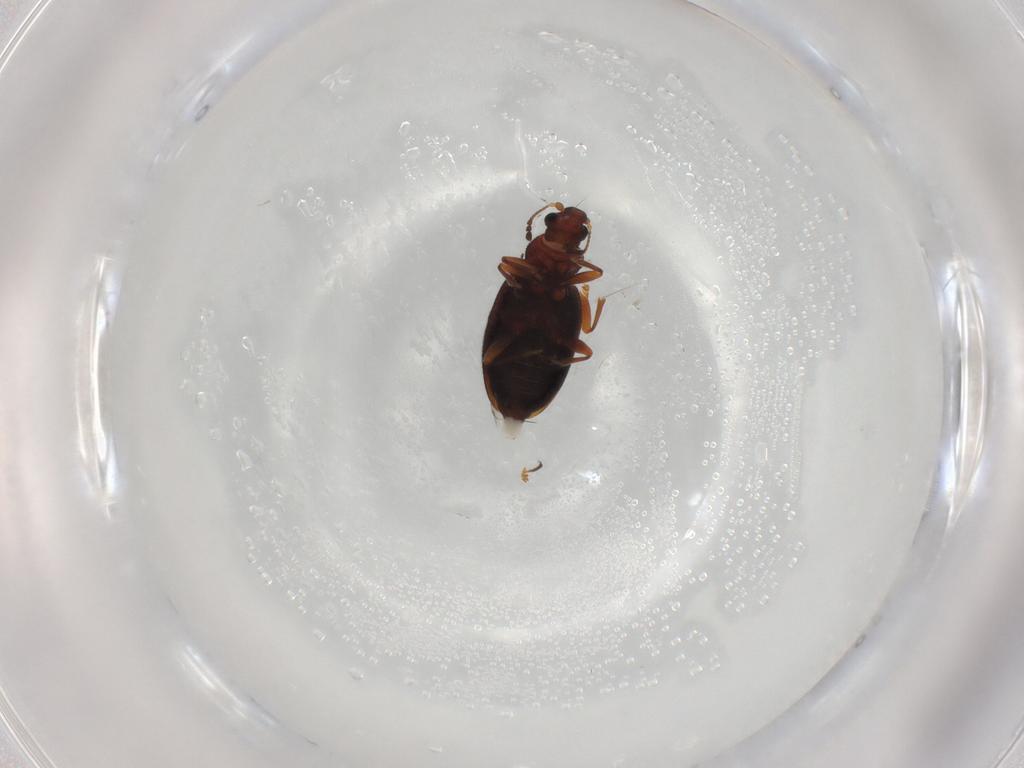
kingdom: Animalia
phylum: Arthropoda
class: Insecta
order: Coleoptera
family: Latridiidae
